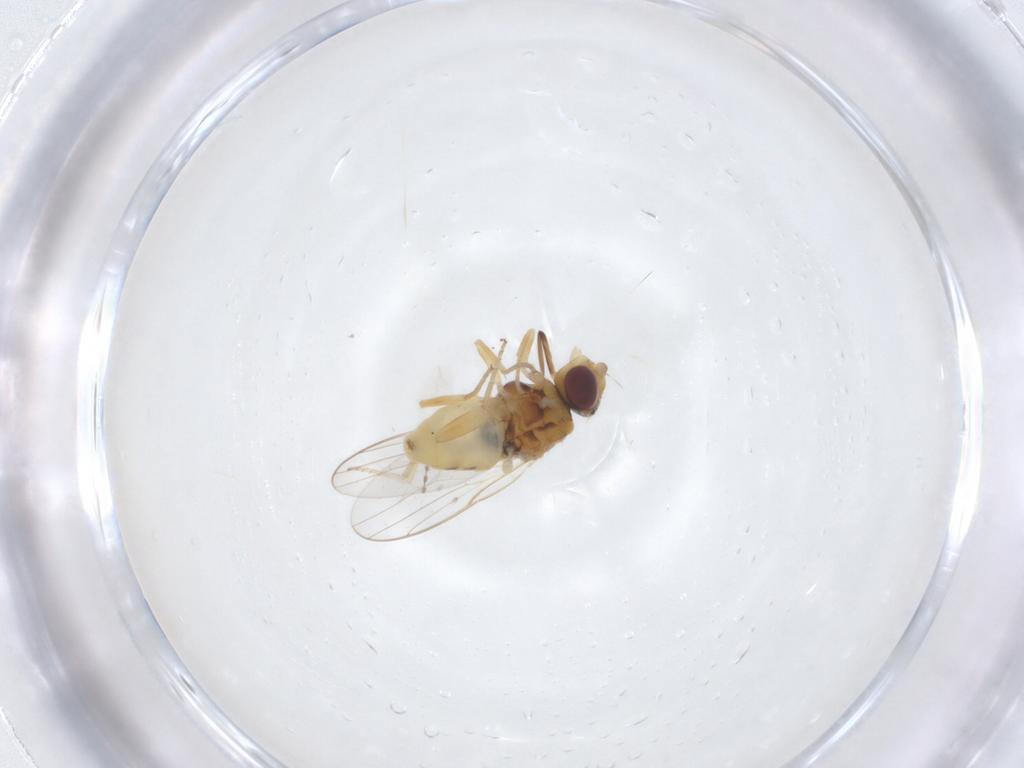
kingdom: Animalia
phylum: Arthropoda
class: Insecta
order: Diptera
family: Chloropidae
